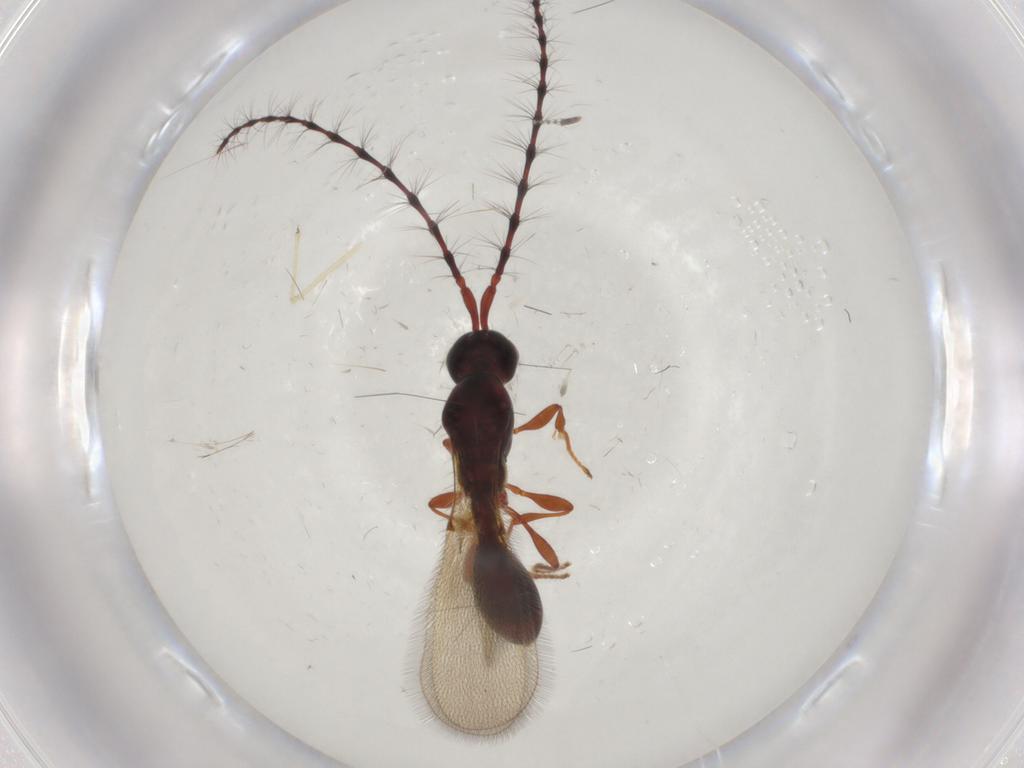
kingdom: Animalia
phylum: Arthropoda
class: Insecta
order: Hymenoptera
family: Diapriidae
